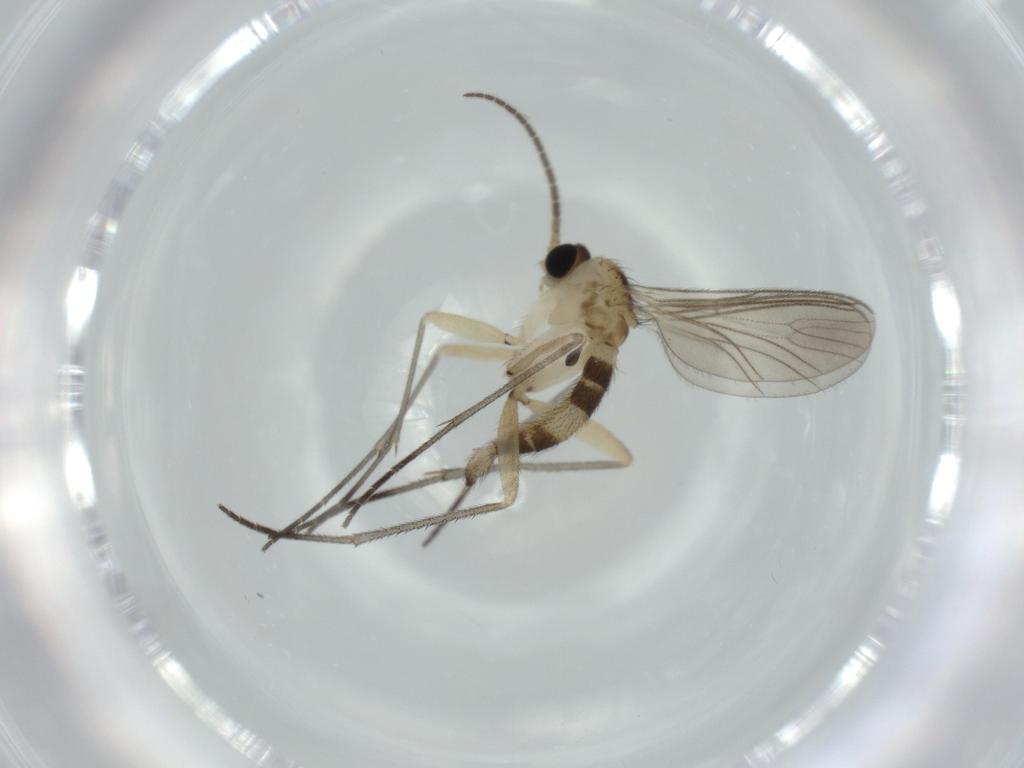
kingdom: Animalia
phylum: Arthropoda
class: Insecta
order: Diptera
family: Sciaridae
